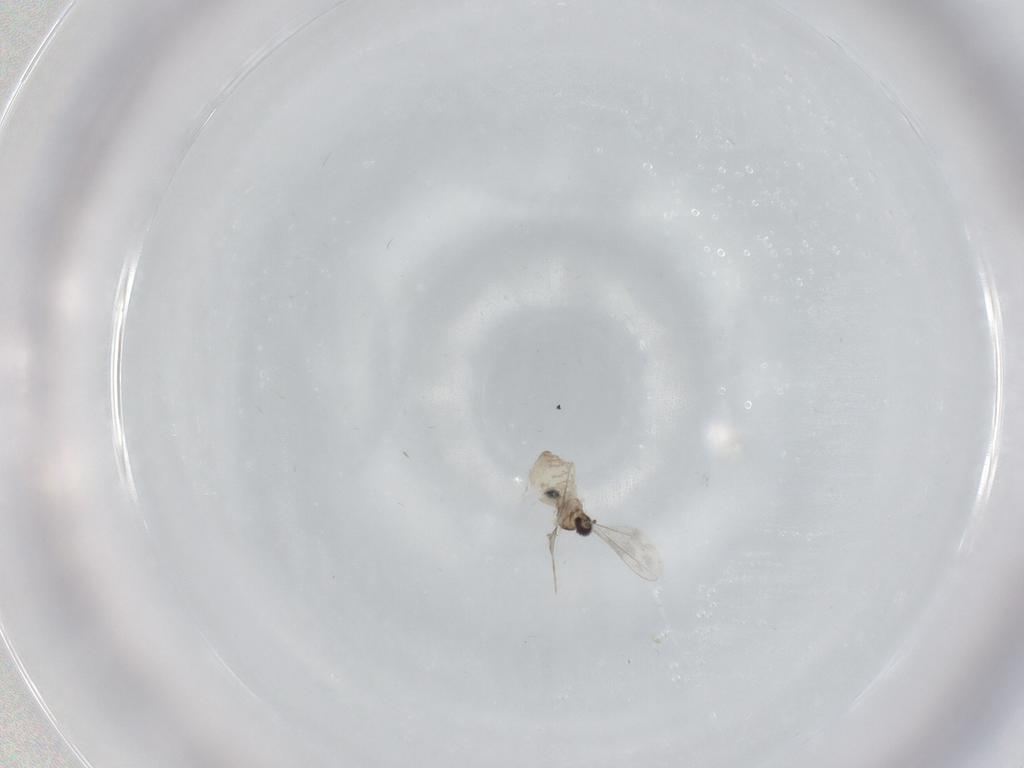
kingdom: Animalia
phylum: Arthropoda
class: Insecta
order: Diptera
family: Cecidomyiidae
